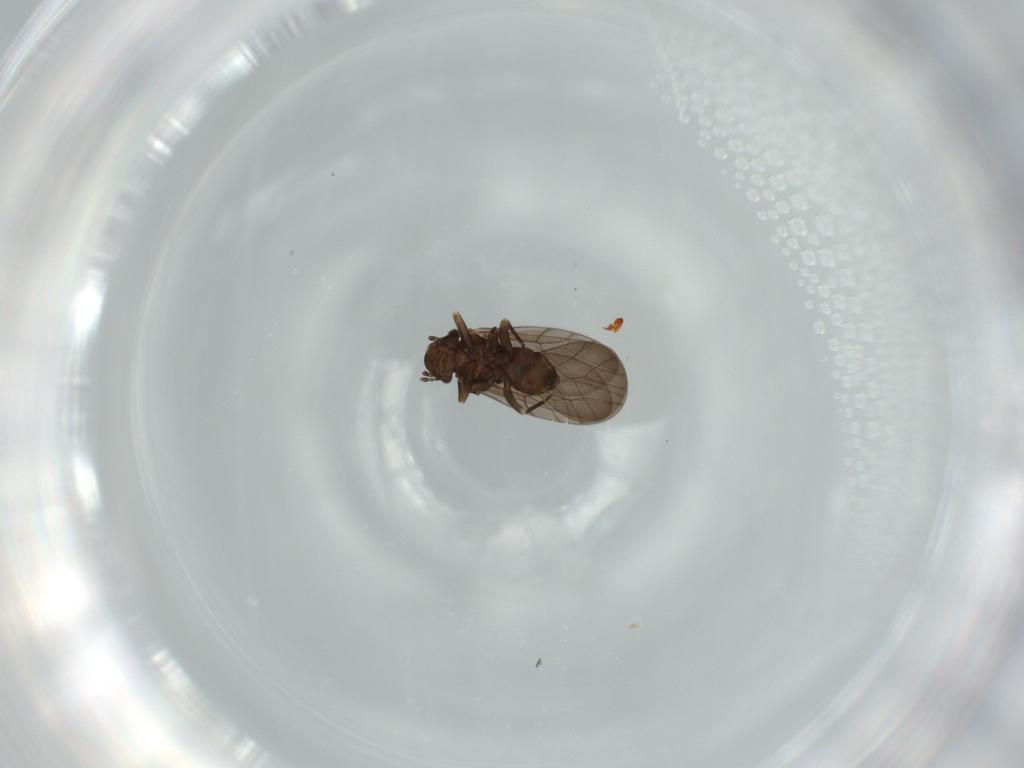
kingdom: Animalia
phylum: Arthropoda
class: Insecta
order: Psocodea
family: Lepidopsocidae
